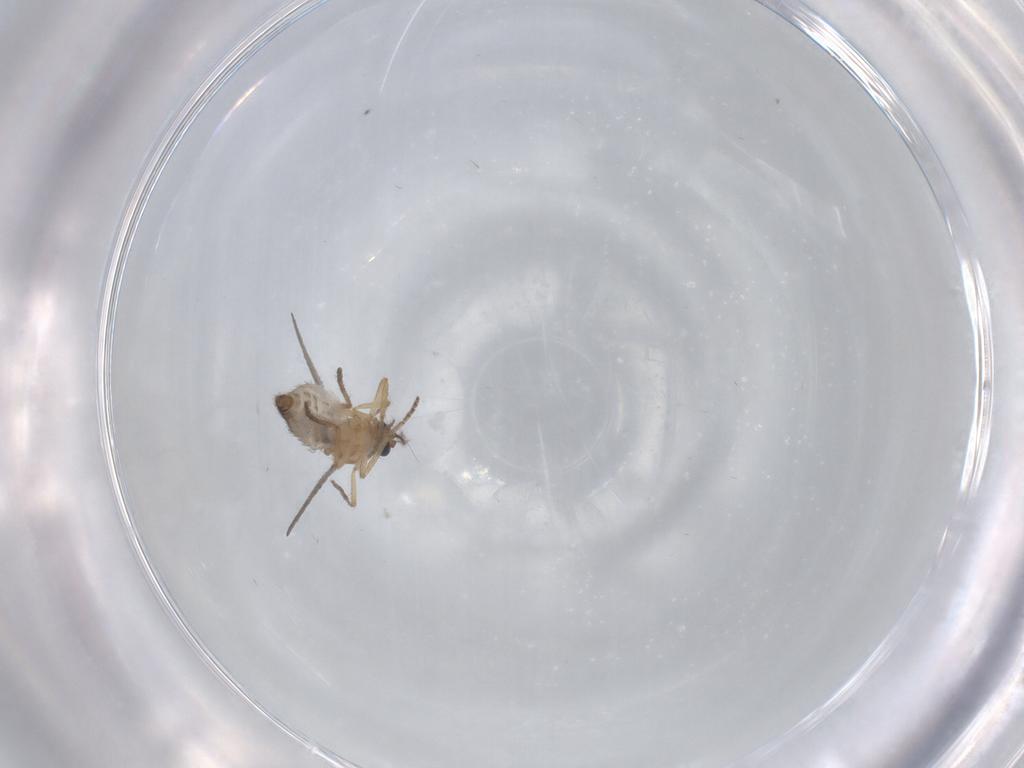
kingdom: Animalia
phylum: Arthropoda
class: Insecta
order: Diptera
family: Ceratopogonidae
